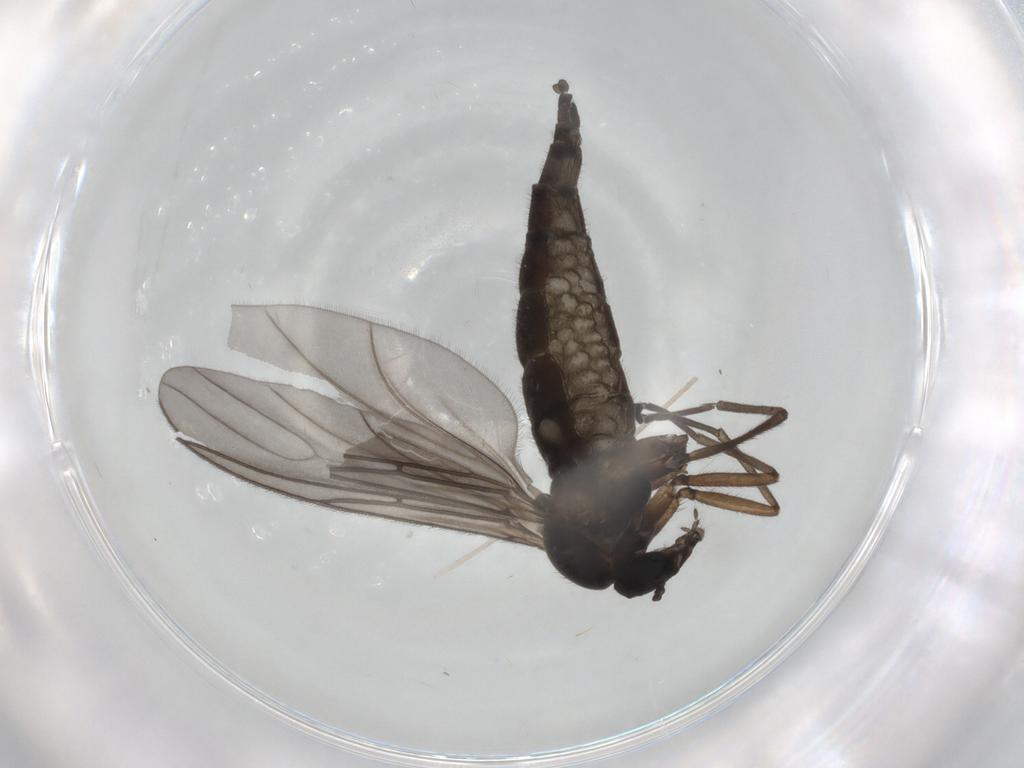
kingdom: Animalia
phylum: Arthropoda
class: Insecta
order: Diptera
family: Sciaridae
